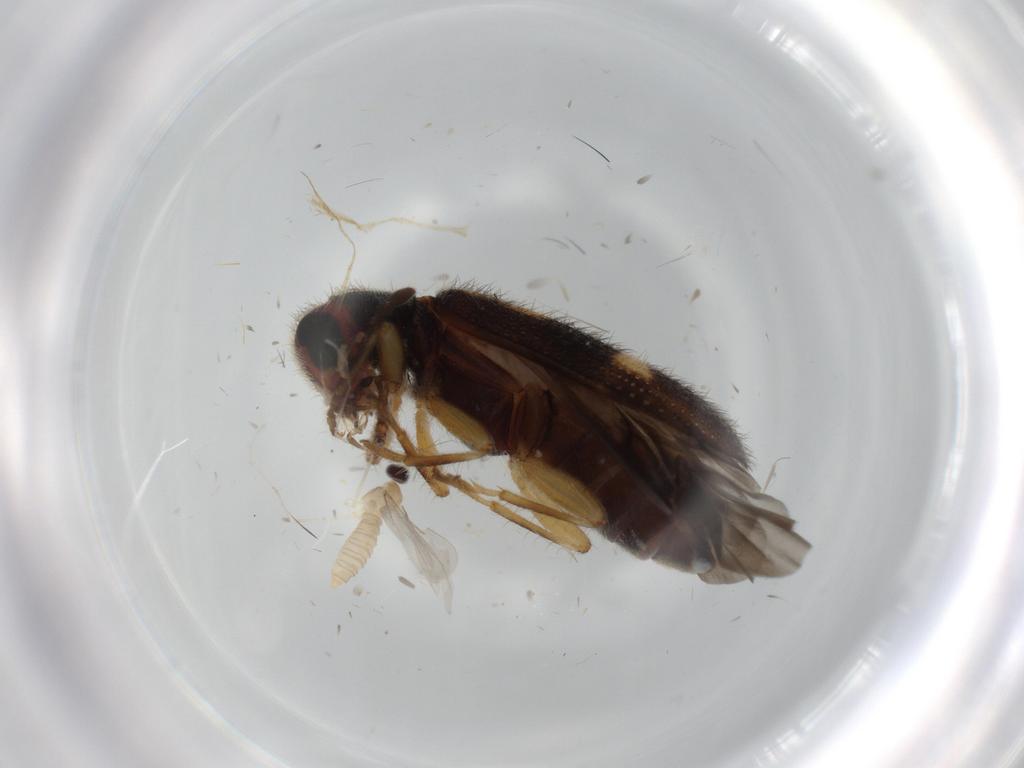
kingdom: Animalia
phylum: Arthropoda
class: Insecta
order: Coleoptera
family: Cleridae
